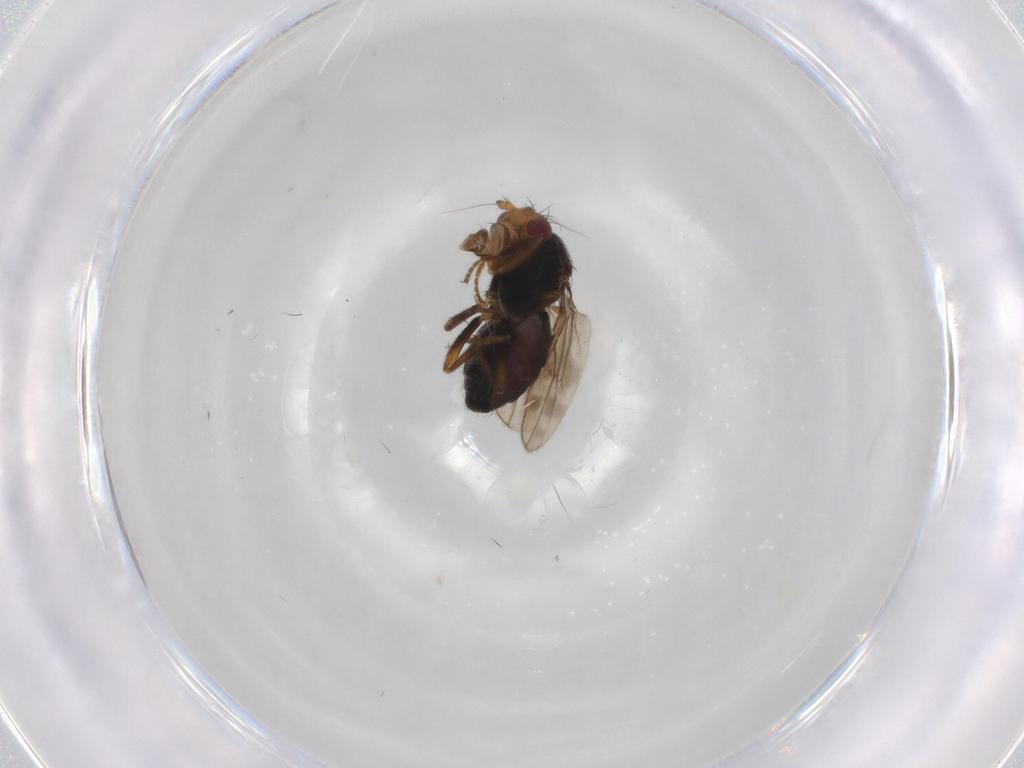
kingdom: Animalia
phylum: Arthropoda
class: Insecta
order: Diptera
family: Sphaeroceridae
